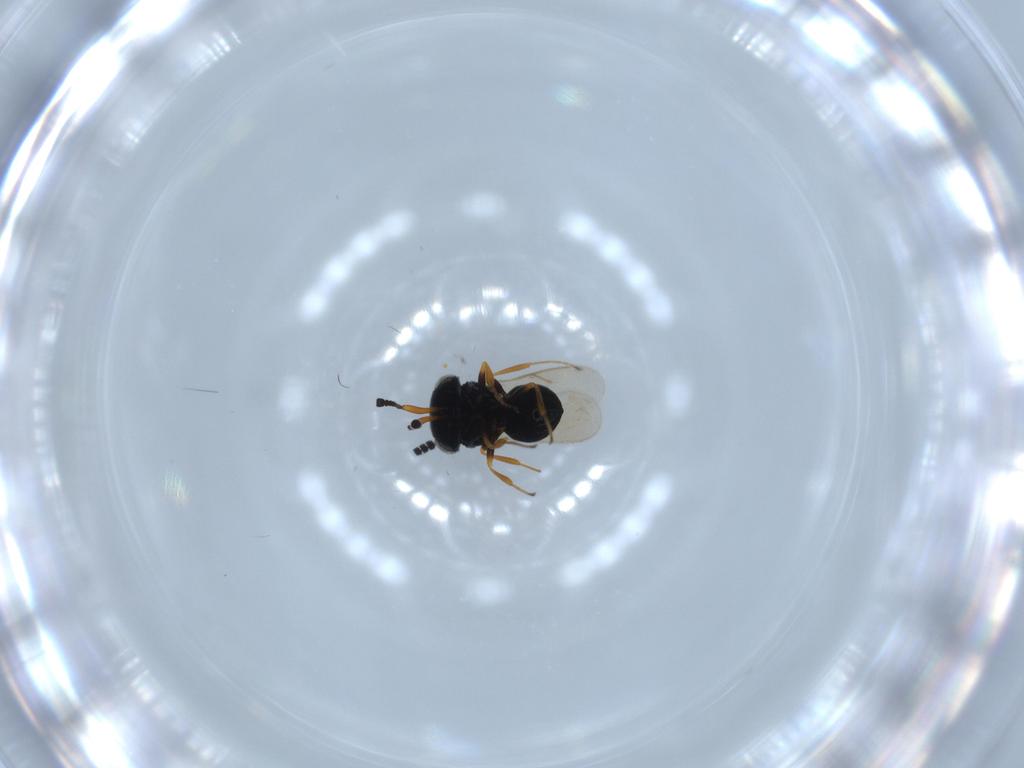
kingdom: Animalia
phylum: Arthropoda
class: Insecta
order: Hymenoptera
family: Scelionidae
